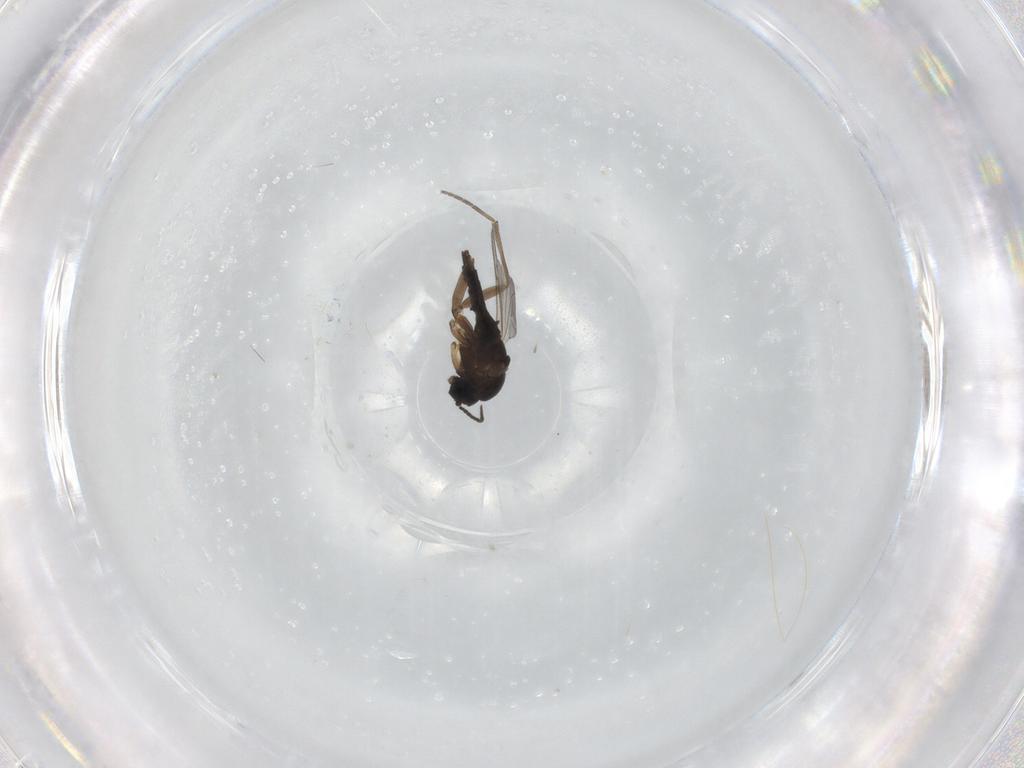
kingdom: Animalia
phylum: Arthropoda
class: Insecta
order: Diptera
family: Sciaridae
